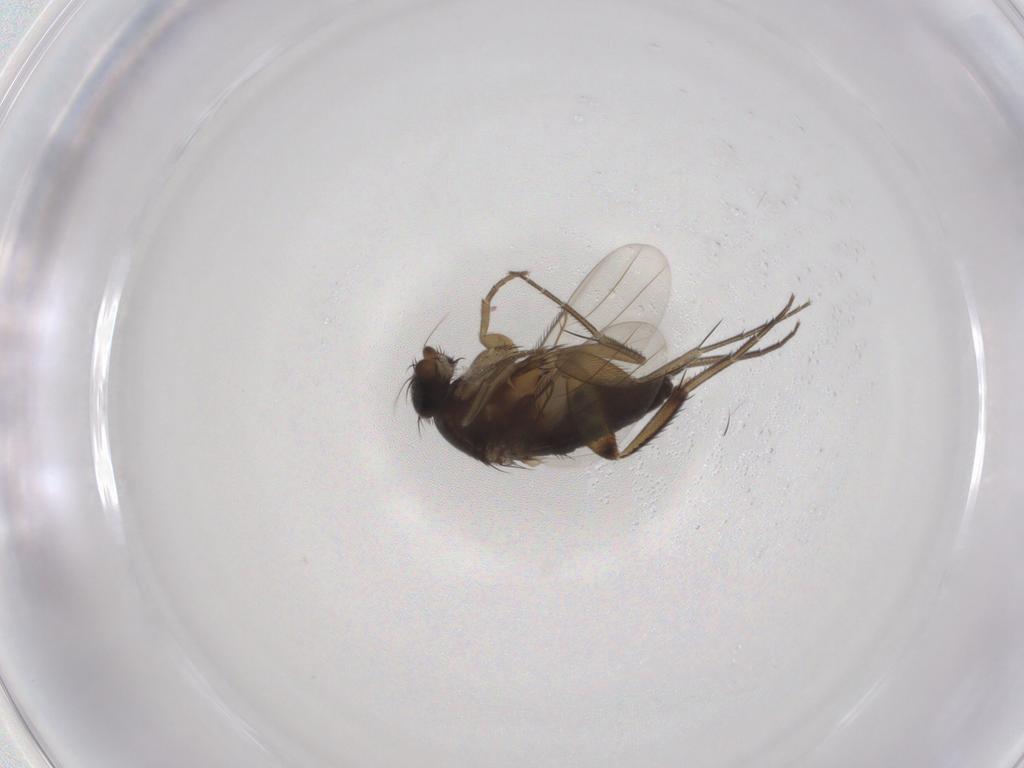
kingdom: Animalia
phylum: Arthropoda
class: Insecta
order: Diptera
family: Phoridae
